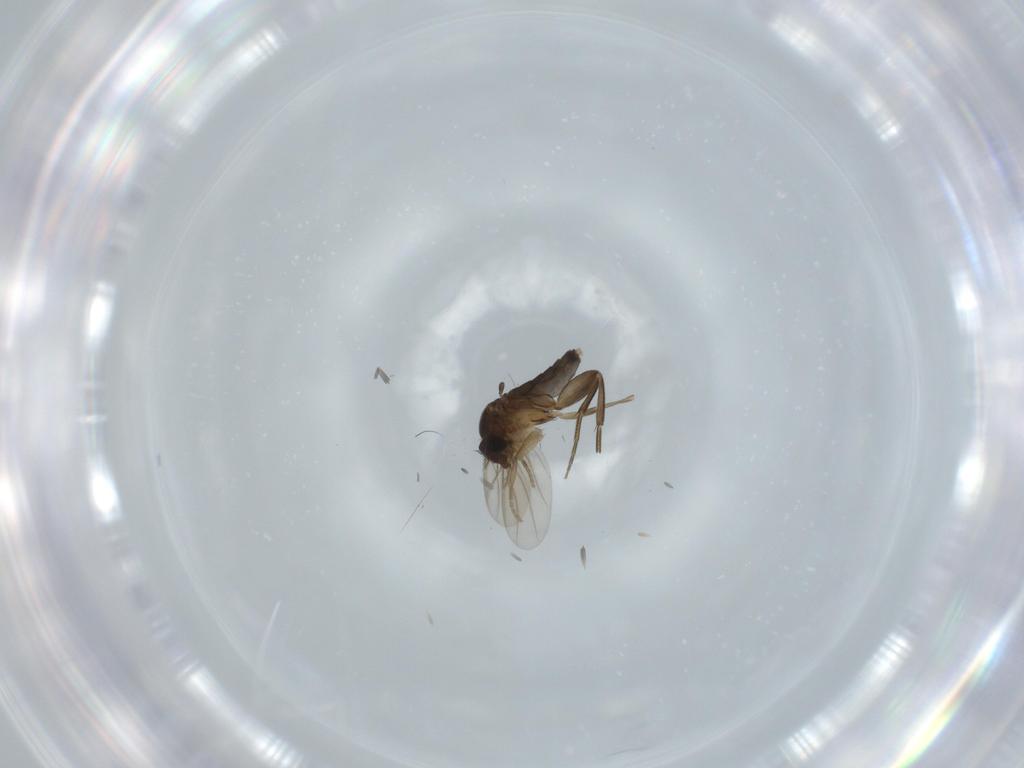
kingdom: Animalia
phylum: Arthropoda
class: Insecta
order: Diptera
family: Phoridae
